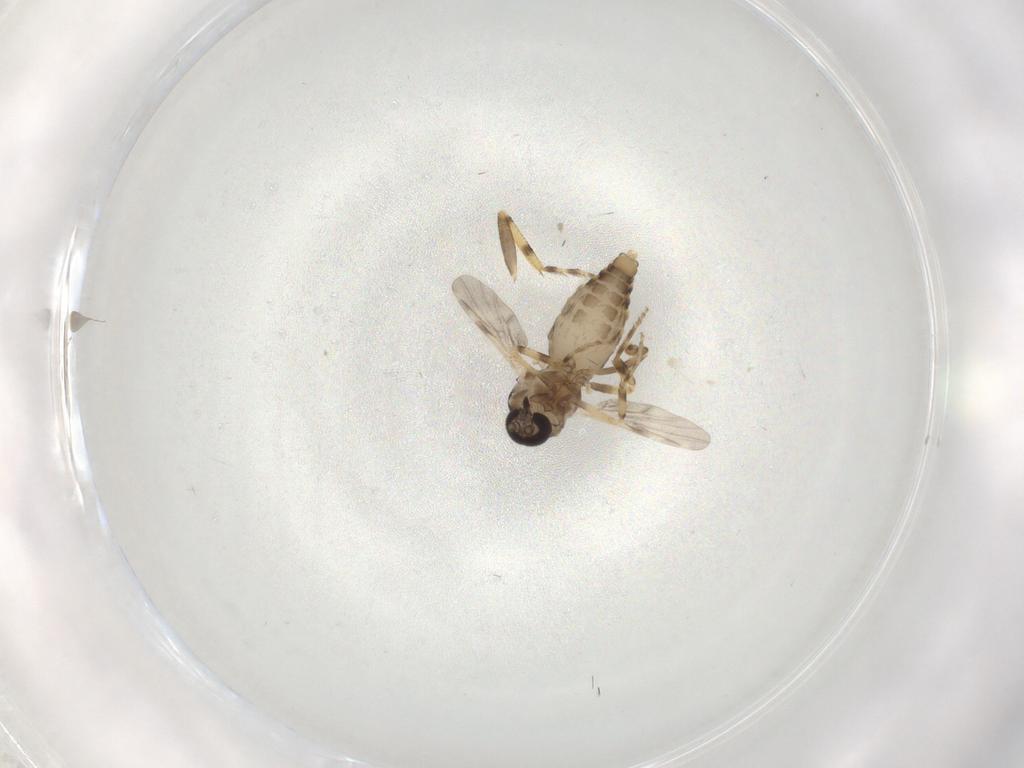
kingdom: Animalia
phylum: Arthropoda
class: Insecta
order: Diptera
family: Ceratopogonidae
